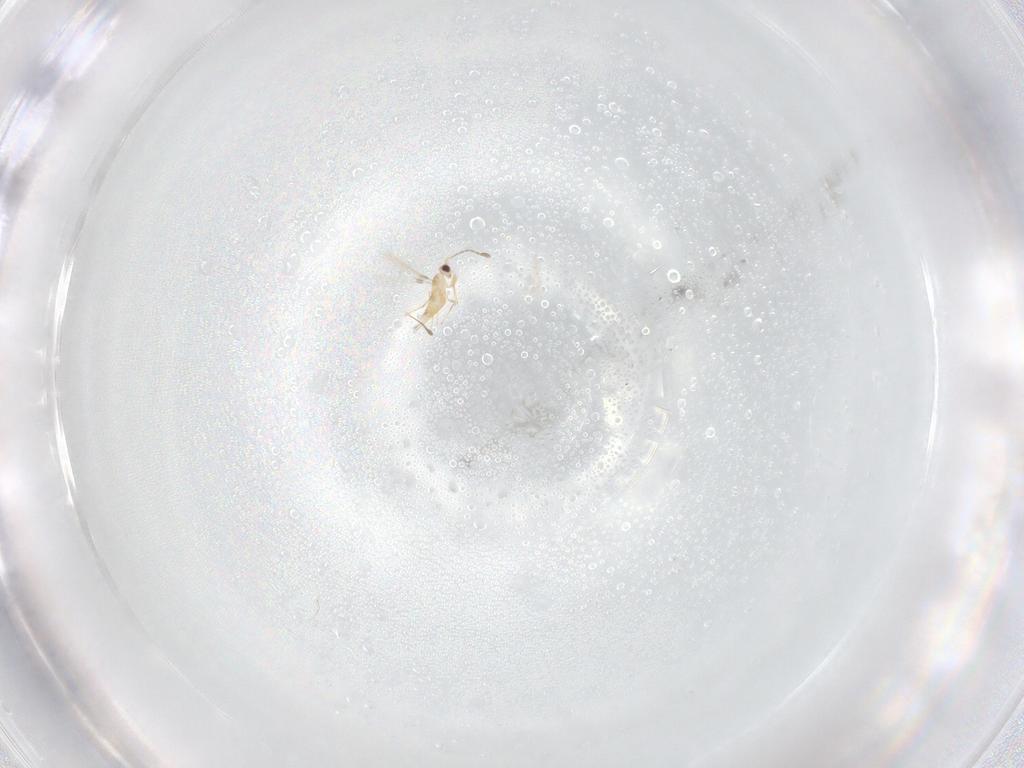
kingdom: Animalia
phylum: Arthropoda
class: Insecta
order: Hymenoptera
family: Mymaridae
